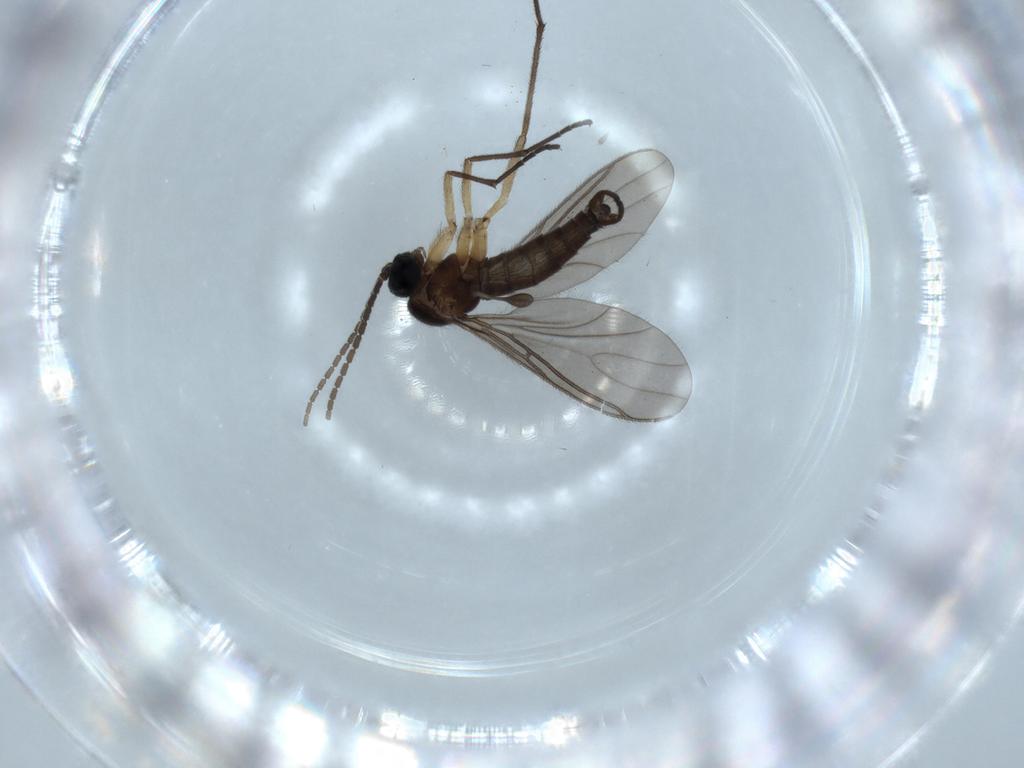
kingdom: Animalia
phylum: Arthropoda
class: Insecta
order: Diptera
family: Sciaridae
